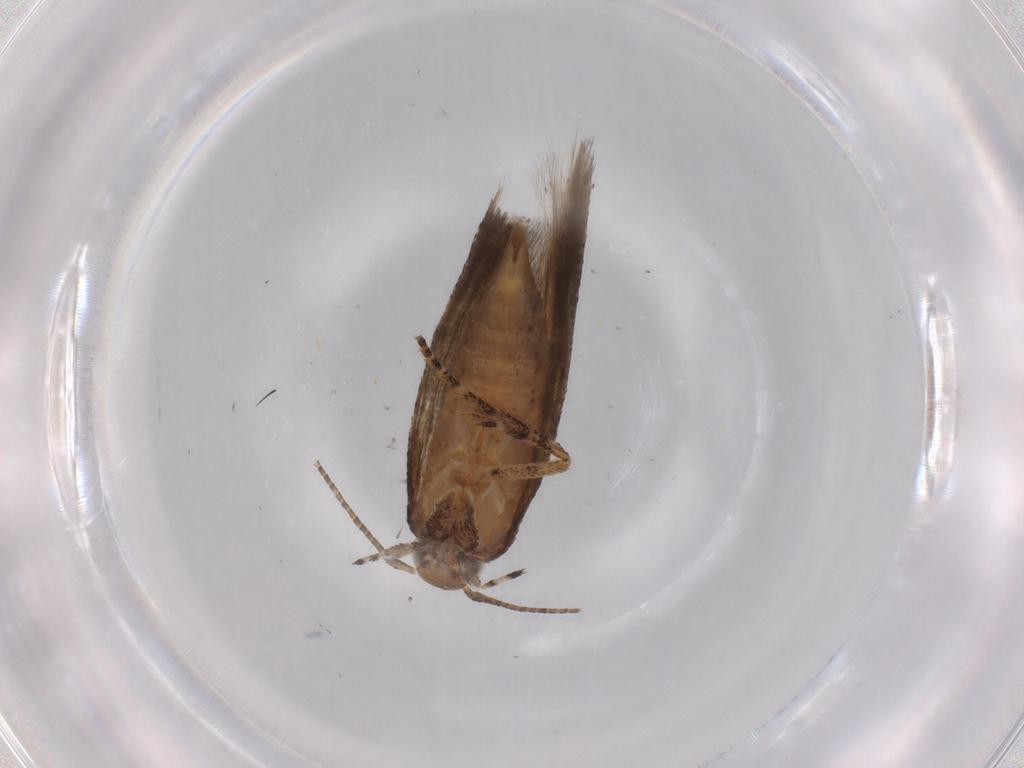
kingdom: Animalia
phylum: Arthropoda
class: Insecta
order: Lepidoptera
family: Gelechiidae
